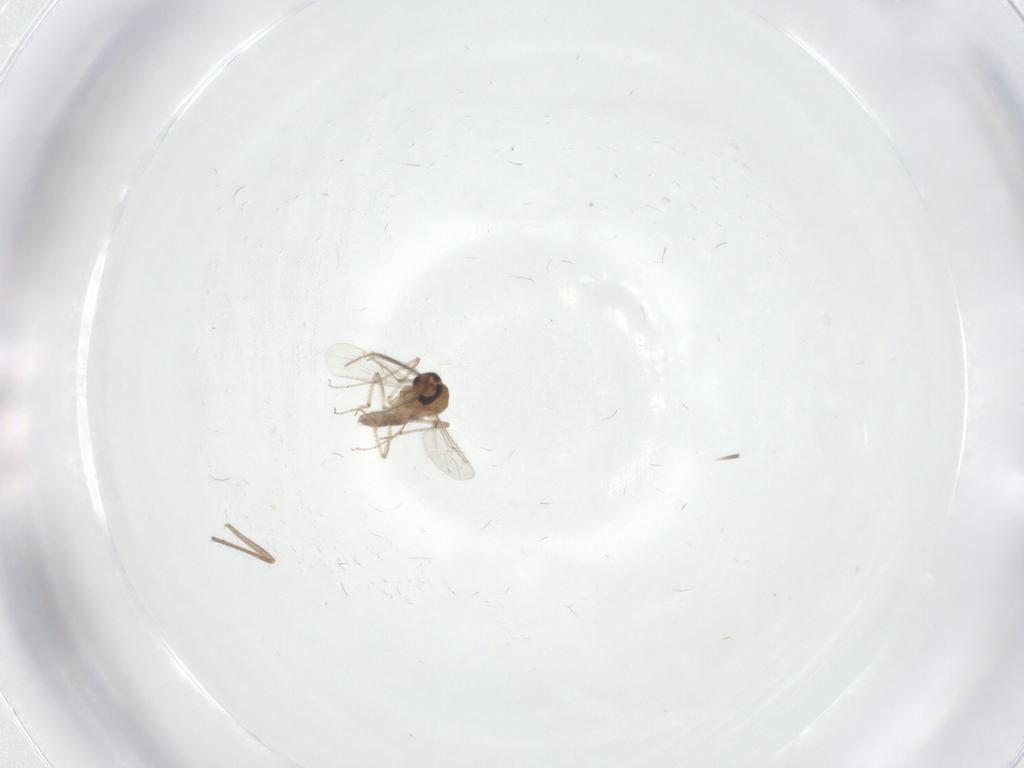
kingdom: Animalia
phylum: Arthropoda
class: Insecta
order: Diptera
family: Ceratopogonidae
